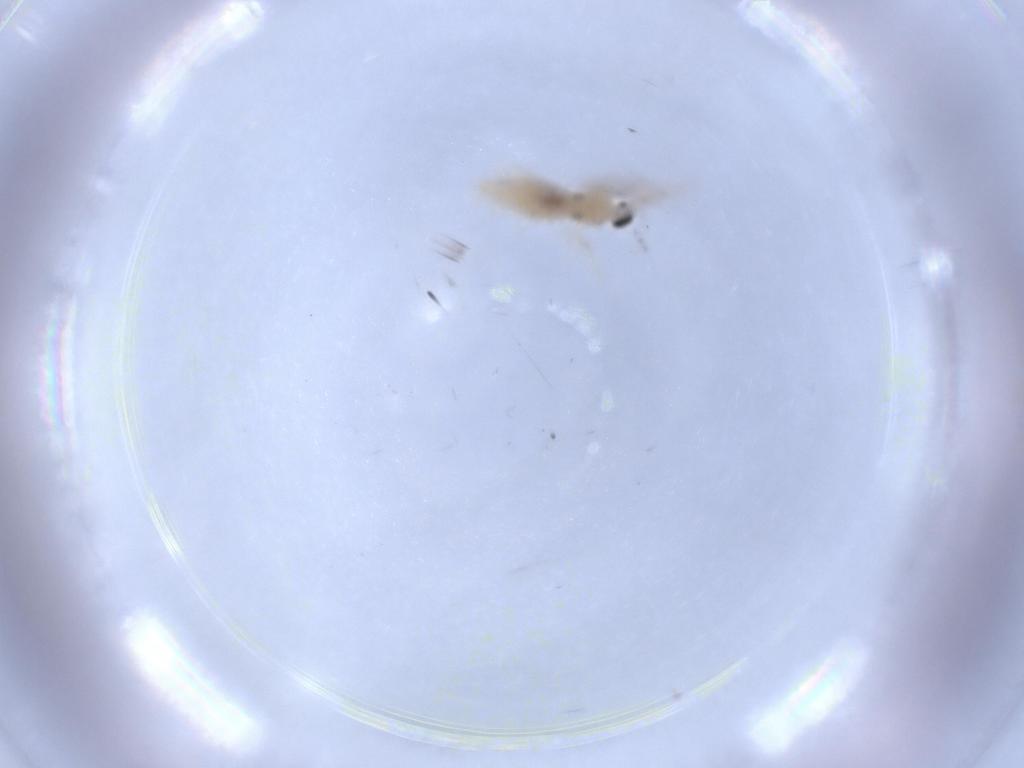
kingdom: Animalia
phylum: Arthropoda
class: Insecta
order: Diptera
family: Cecidomyiidae
